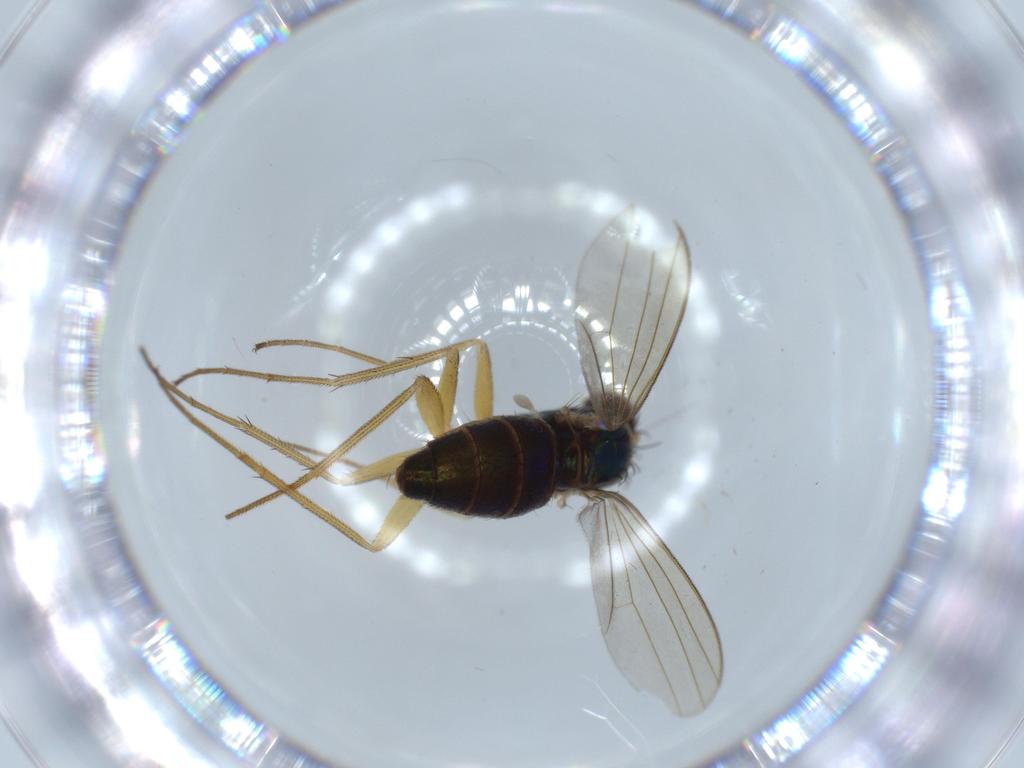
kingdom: Animalia
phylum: Arthropoda
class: Insecta
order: Diptera
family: Dolichopodidae
